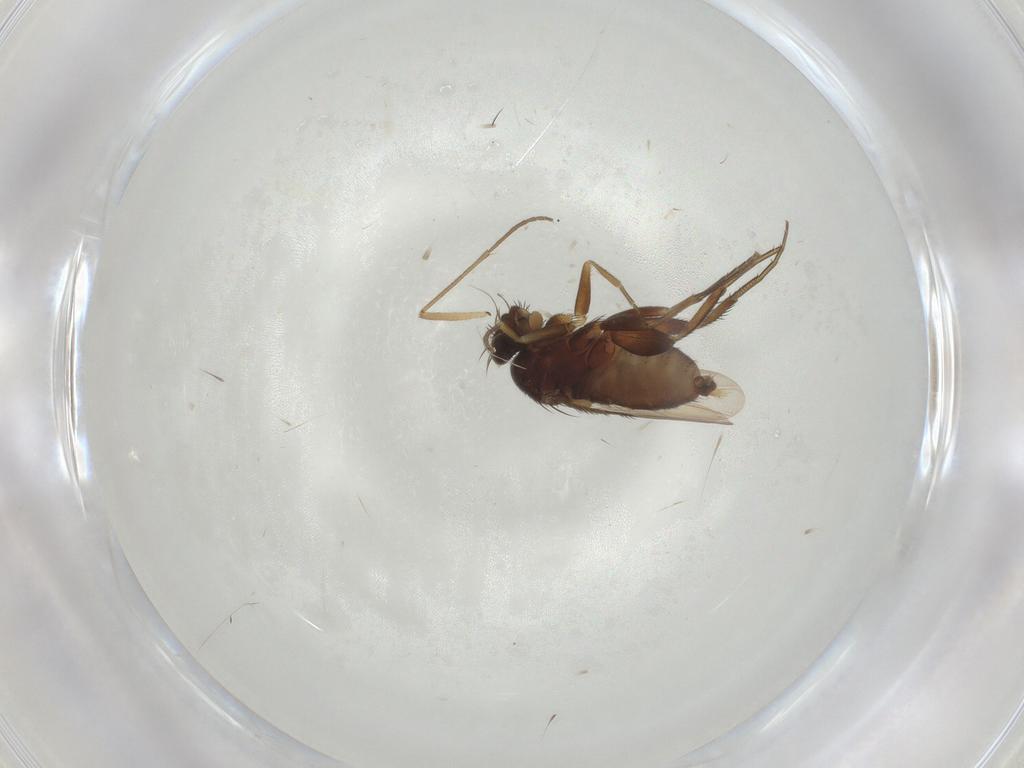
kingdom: Animalia
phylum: Arthropoda
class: Insecta
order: Diptera
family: Phoridae
